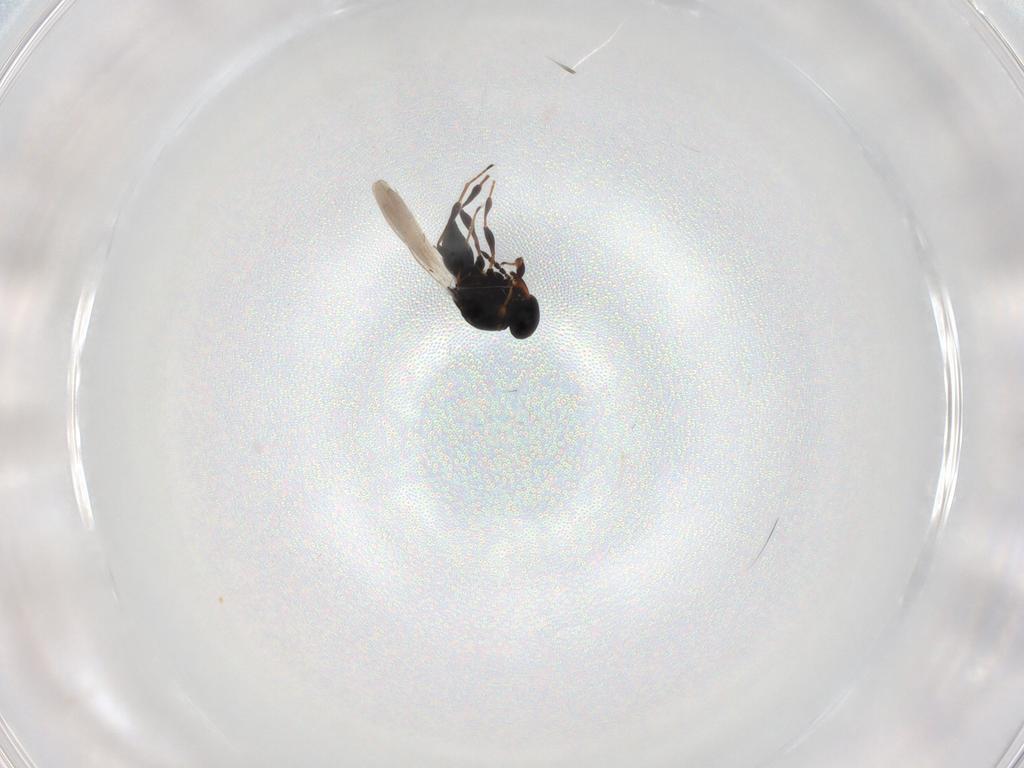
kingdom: Animalia
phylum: Arthropoda
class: Insecta
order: Hymenoptera
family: Platygastridae
